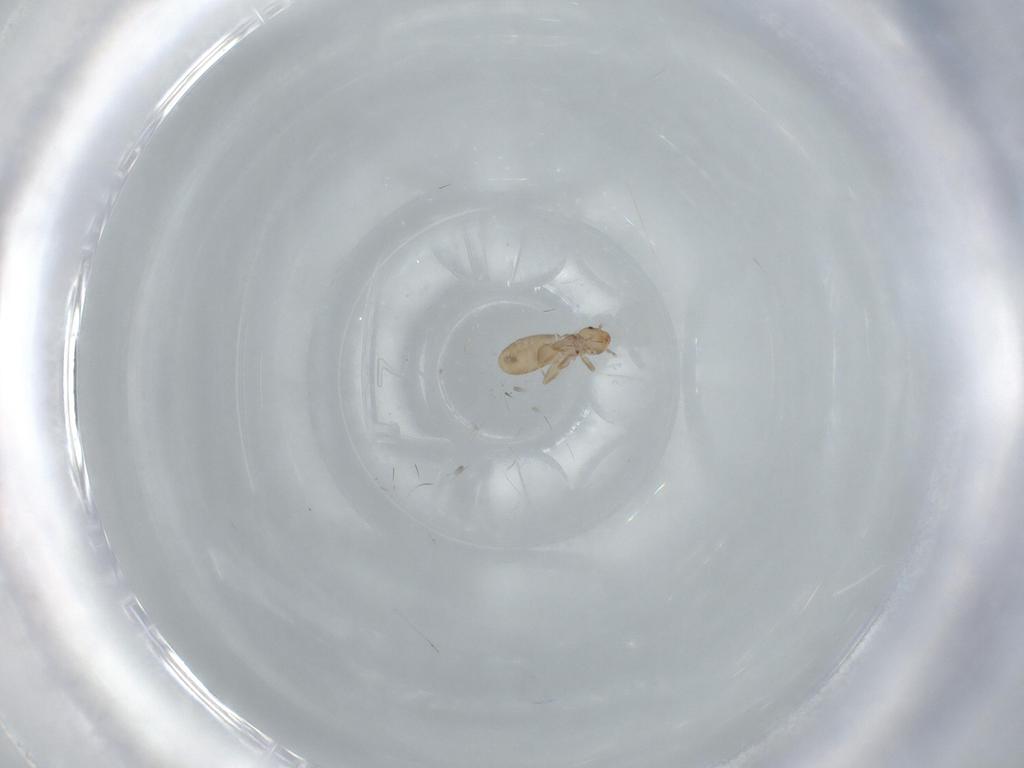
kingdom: Animalia
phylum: Arthropoda
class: Insecta
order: Psocodea
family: Liposcelididae
